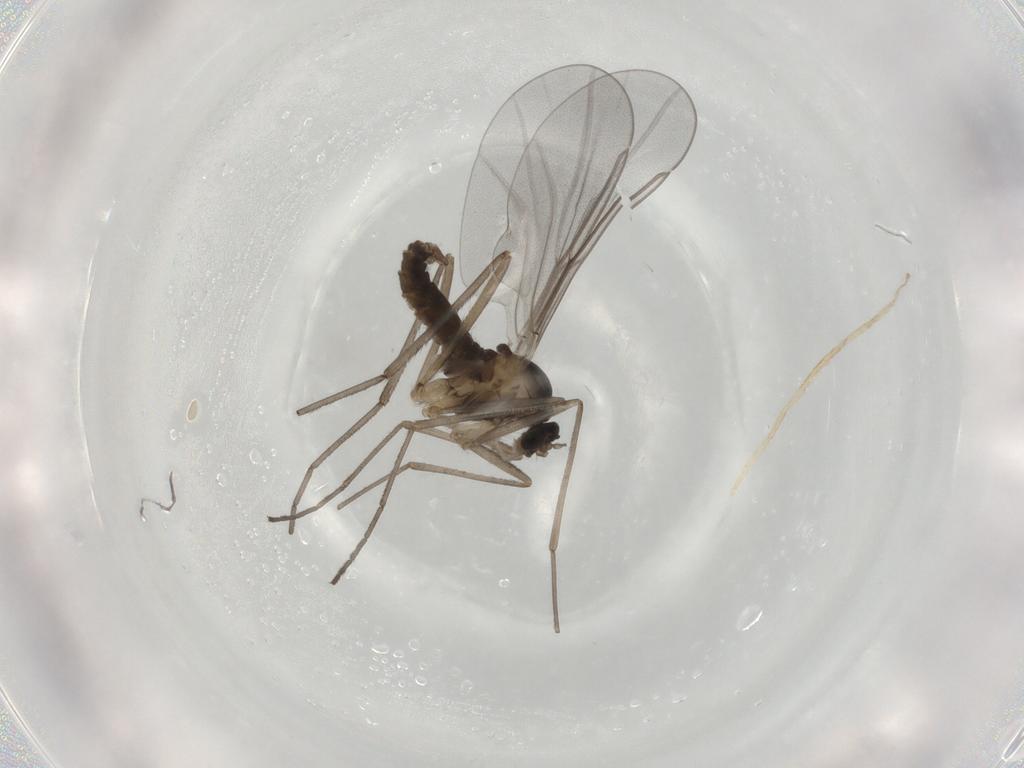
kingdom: Animalia
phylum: Arthropoda
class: Insecta
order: Diptera
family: Cecidomyiidae
